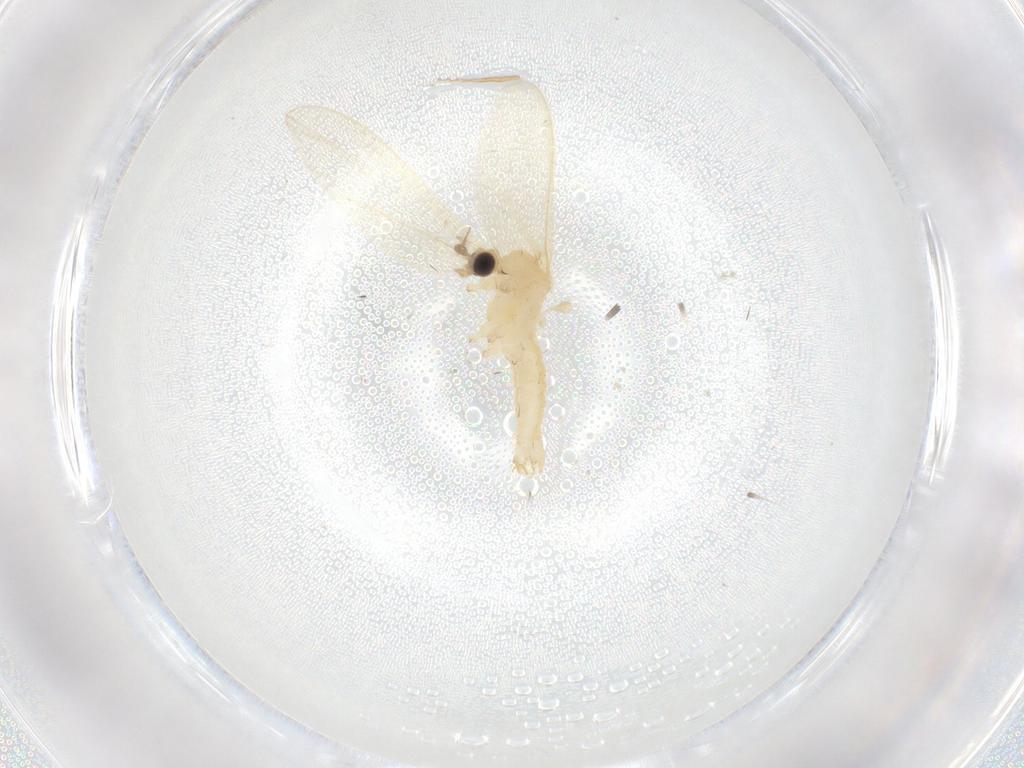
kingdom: Animalia
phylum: Arthropoda
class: Insecta
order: Diptera
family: Limoniidae
